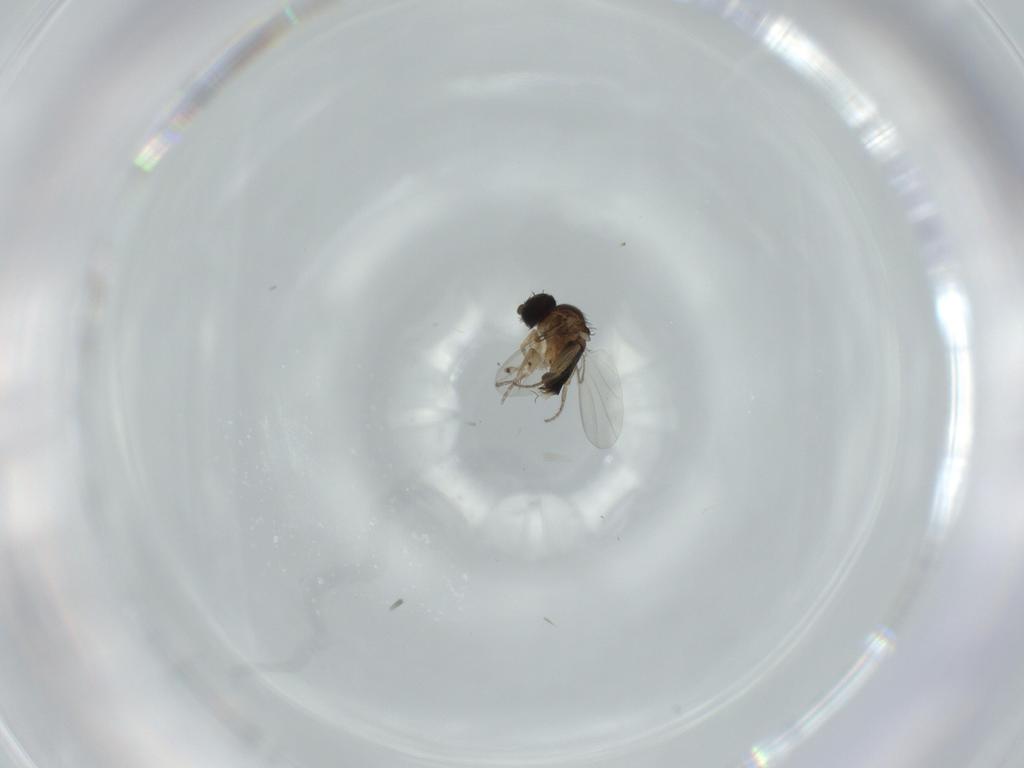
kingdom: Animalia
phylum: Arthropoda
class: Insecta
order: Diptera
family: Phoridae
